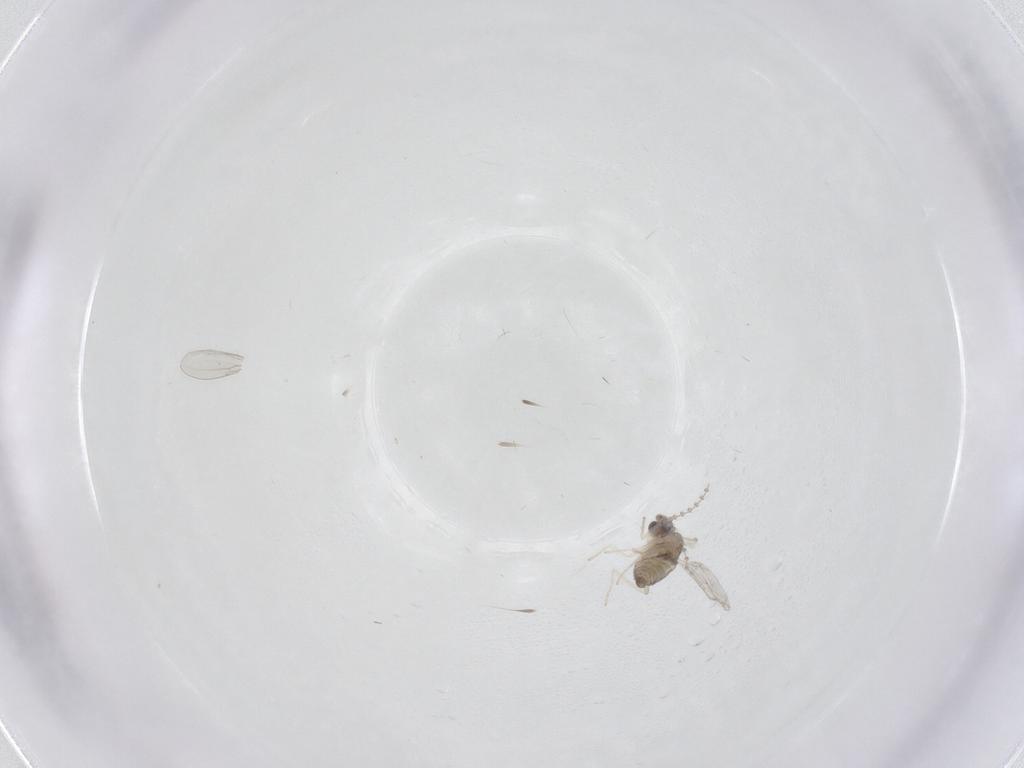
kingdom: Animalia
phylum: Arthropoda
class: Insecta
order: Diptera
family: Cecidomyiidae
